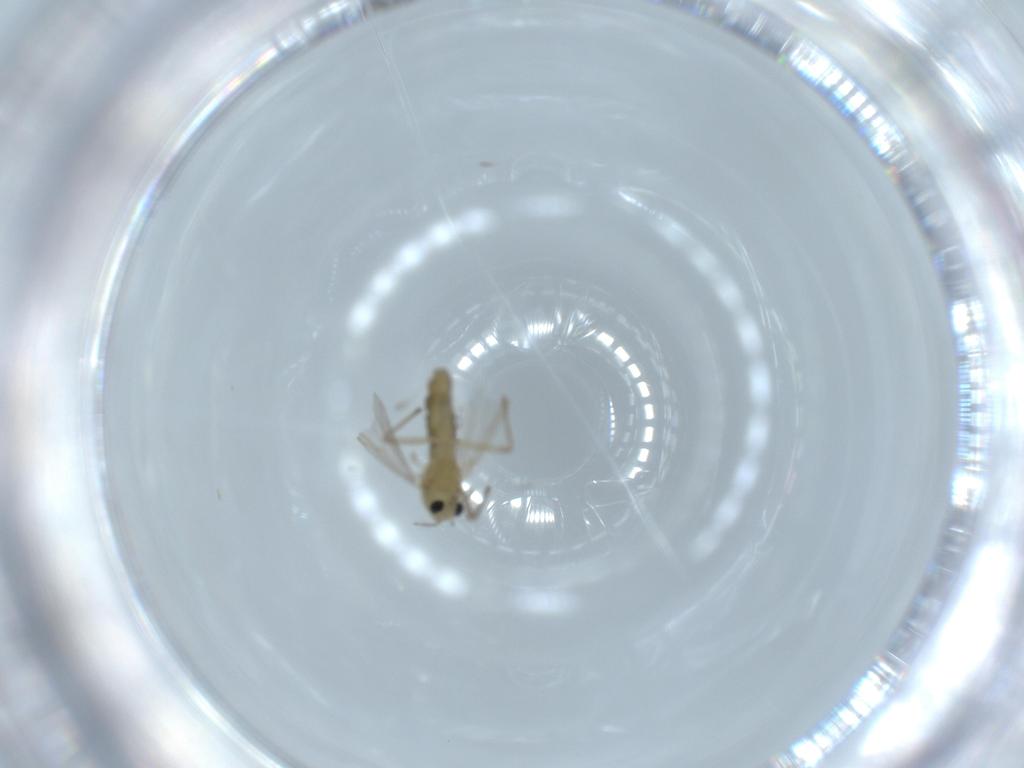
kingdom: Animalia
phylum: Arthropoda
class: Insecta
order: Diptera
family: Chironomidae
